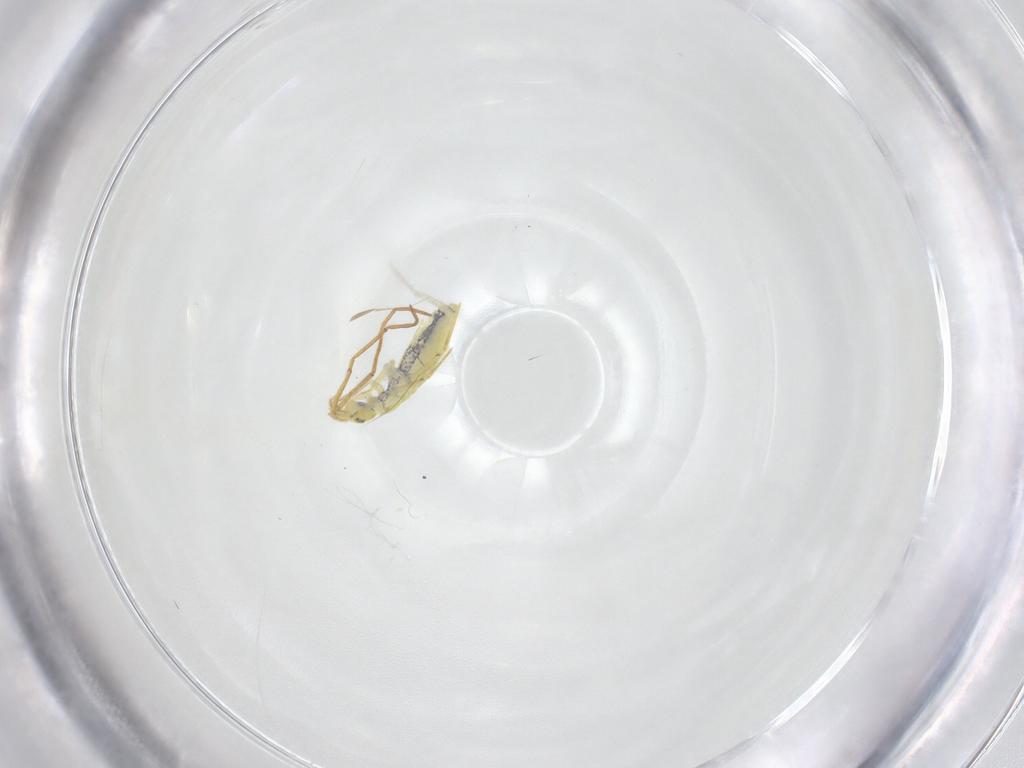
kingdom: Animalia
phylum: Arthropoda
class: Collembola
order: Entomobryomorpha
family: Entomobryidae
